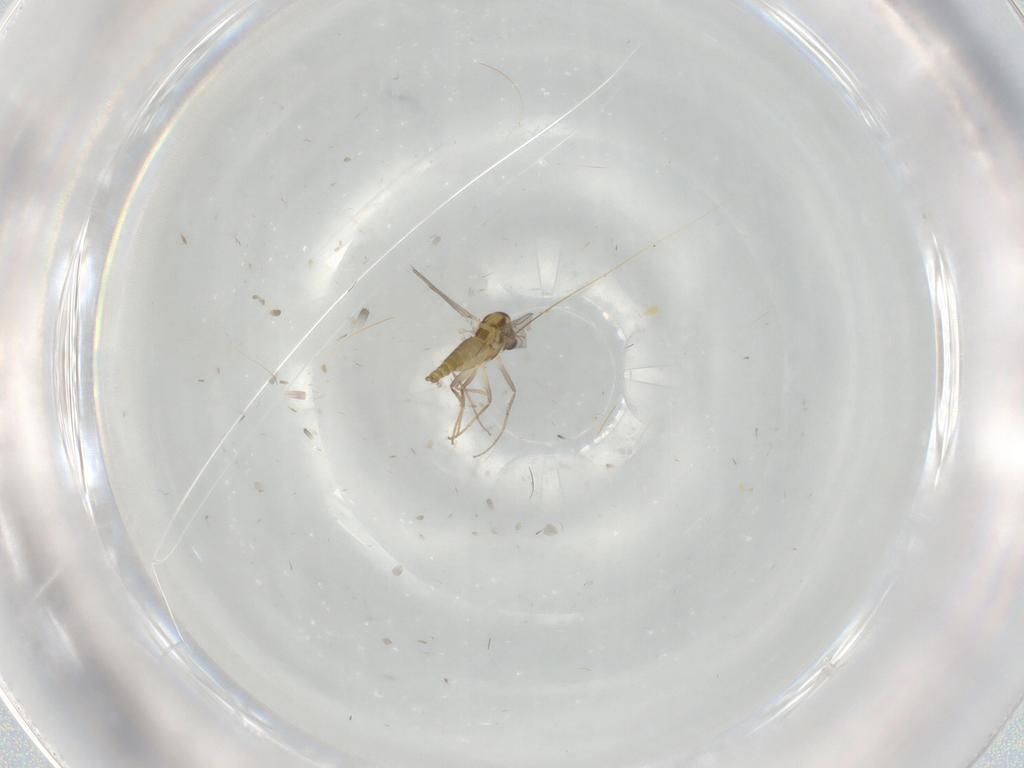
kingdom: Animalia
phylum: Arthropoda
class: Insecta
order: Diptera
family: Chironomidae
